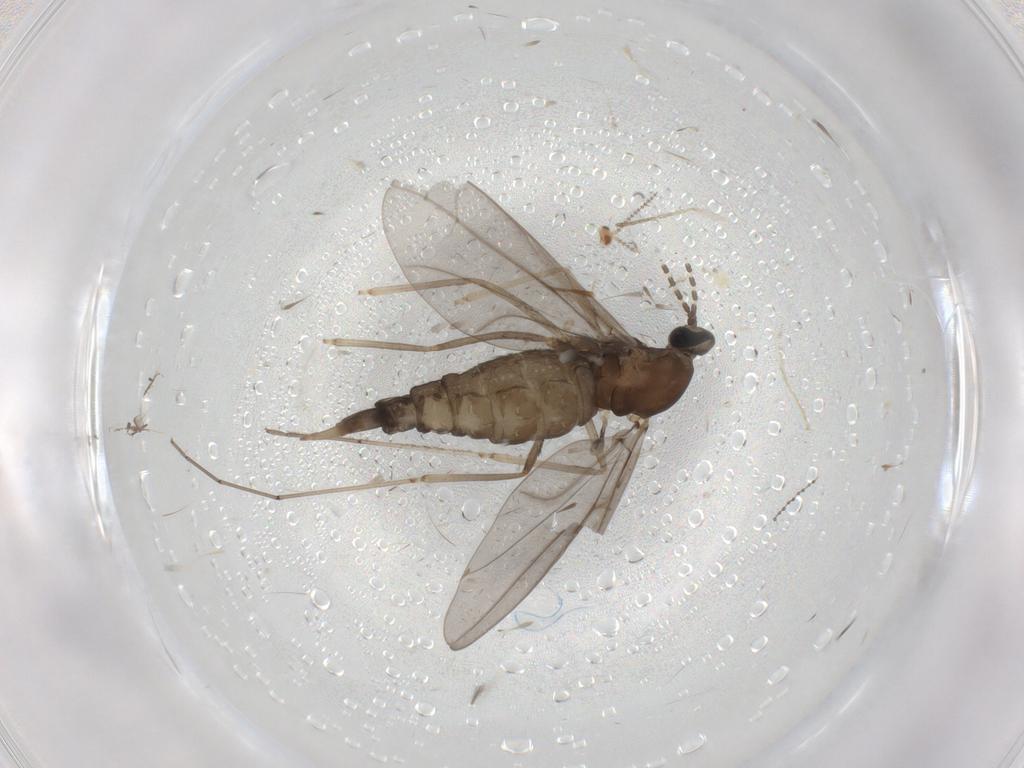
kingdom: Animalia
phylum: Arthropoda
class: Insecta
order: Diptera
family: Cecidomyiidae
